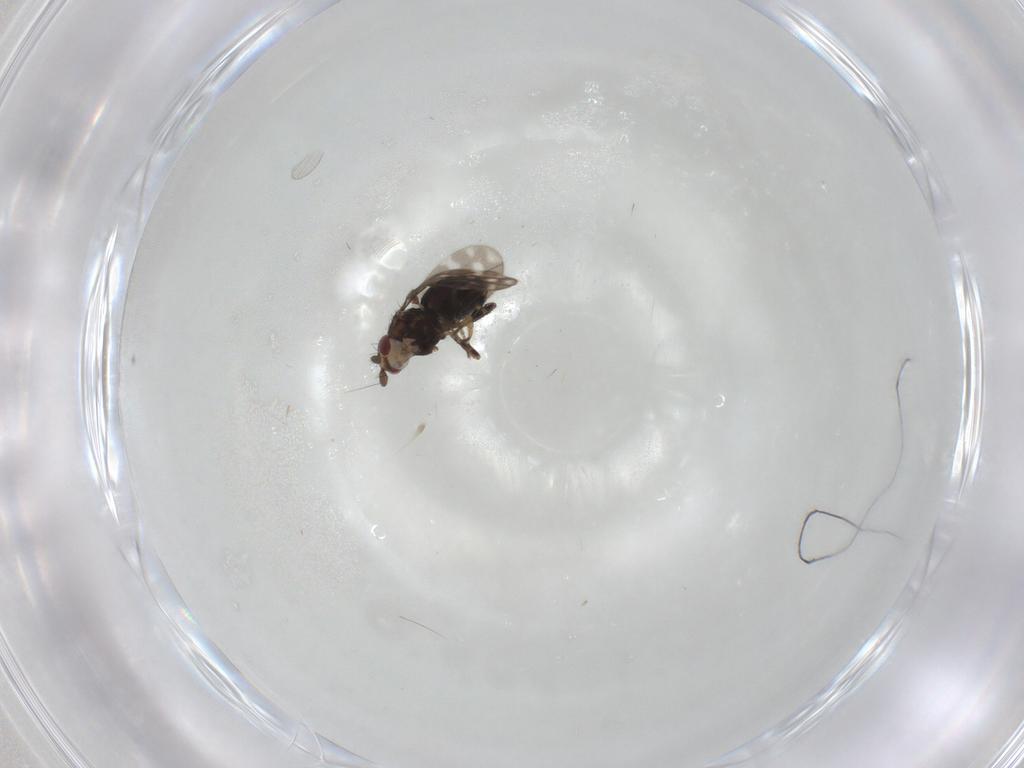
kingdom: Animalia
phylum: Arthropoda
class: Insecta
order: Diptera
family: Sphaeroceridae
